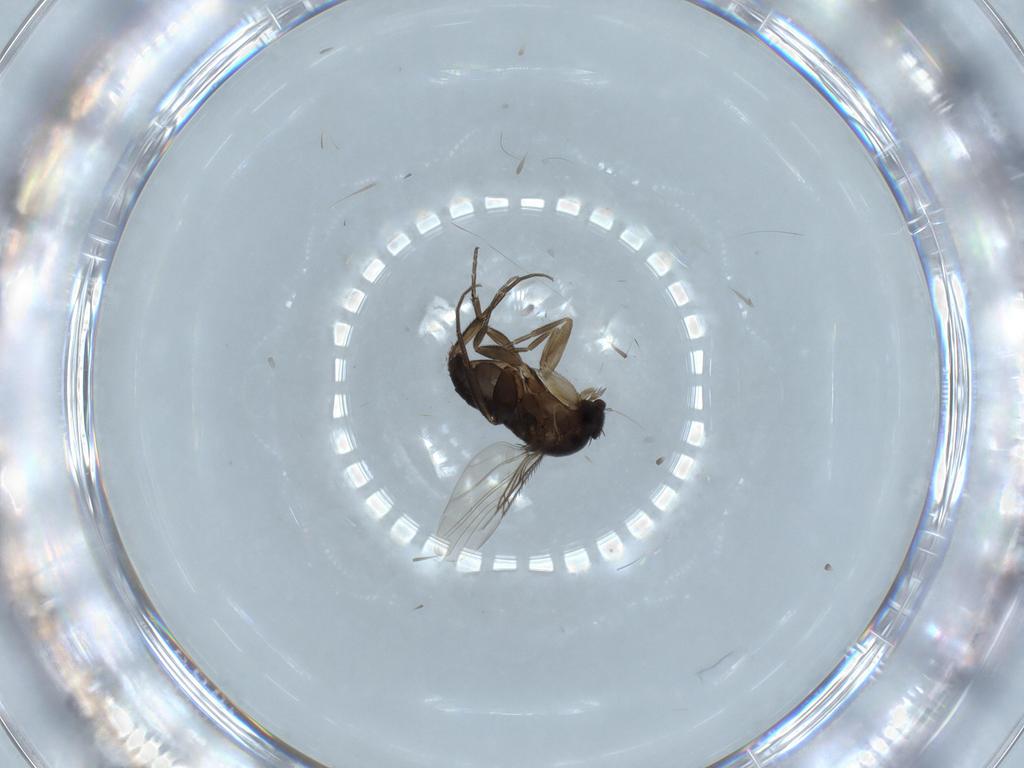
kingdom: Animalia
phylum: Arthropoda
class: Insecta
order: Diptera
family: Phoridae
